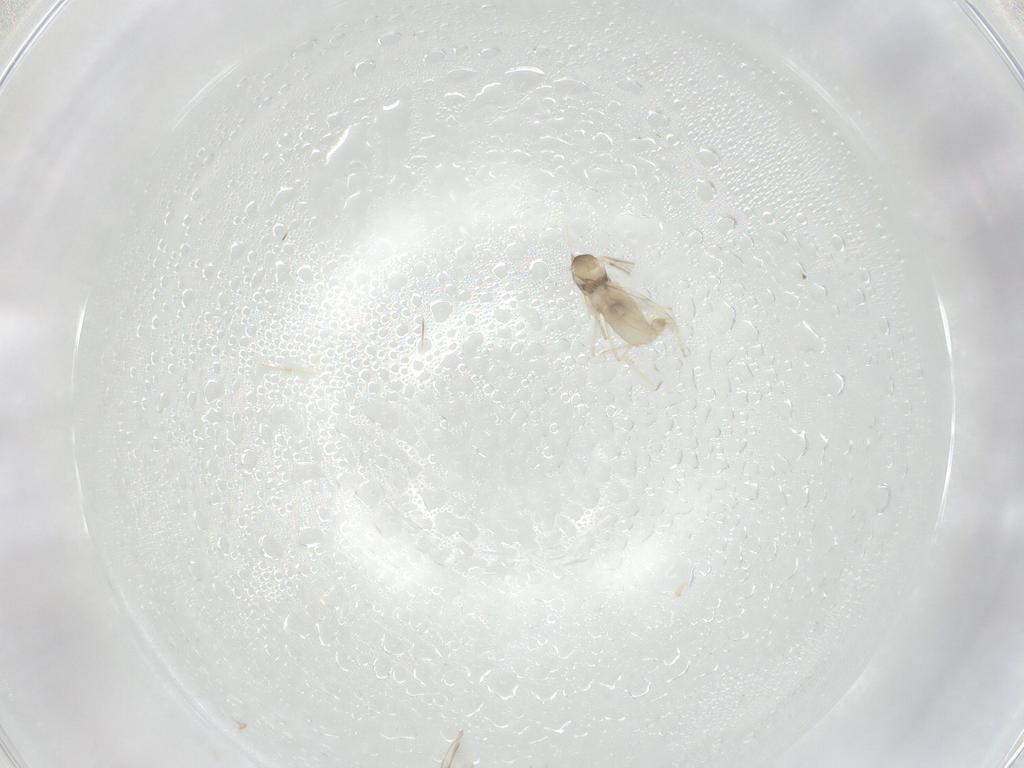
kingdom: Animalia
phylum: Arthropoda
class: Insecta
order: Diptera
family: Cecidomyiidae
